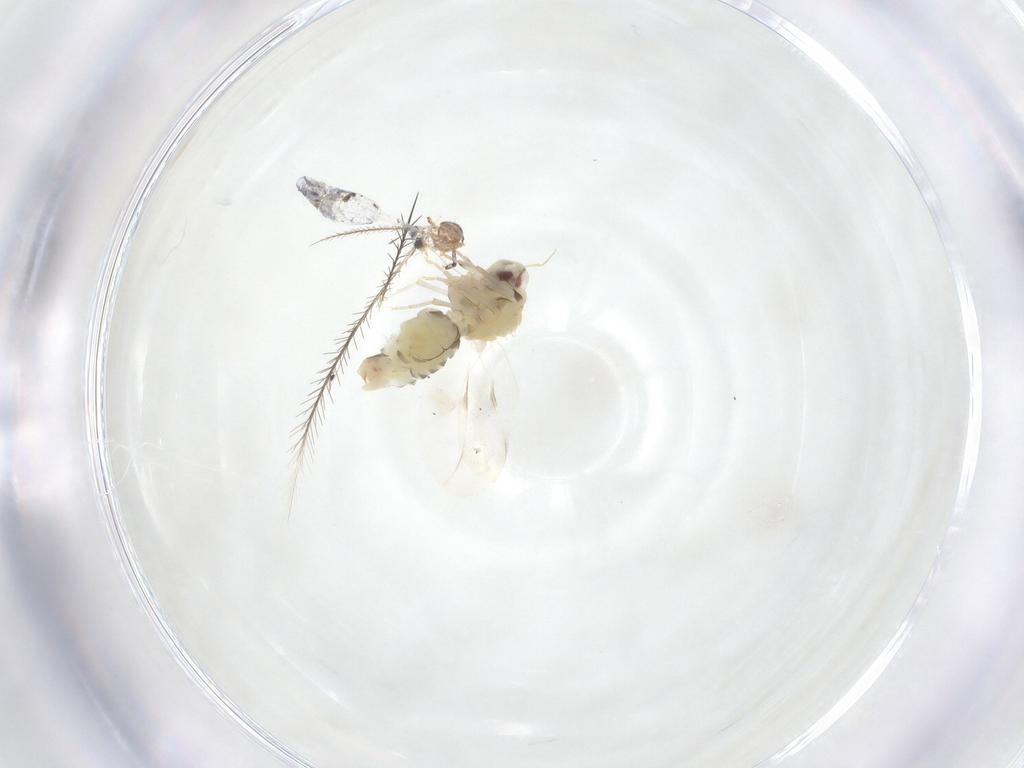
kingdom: Animalia
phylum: Arthropoda
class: Insecta
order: Hemiptera
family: Aleyrodidae
